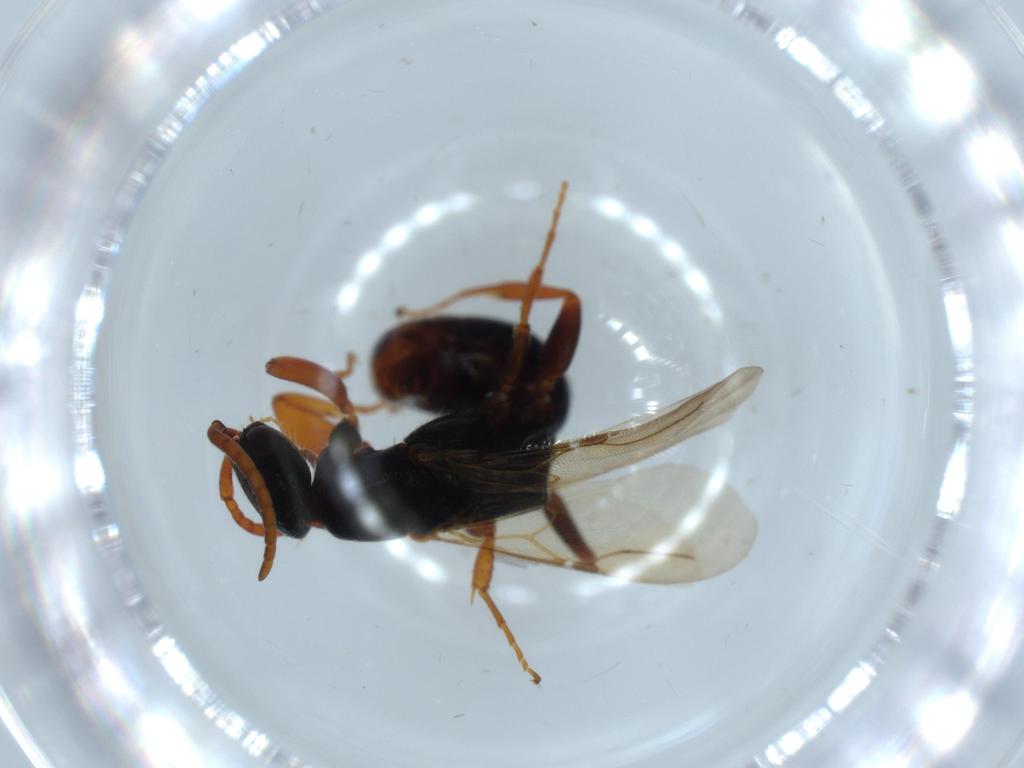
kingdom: Animalia
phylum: Arthropoda
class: Insecta
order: Hymenoptera
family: Bethylidae
